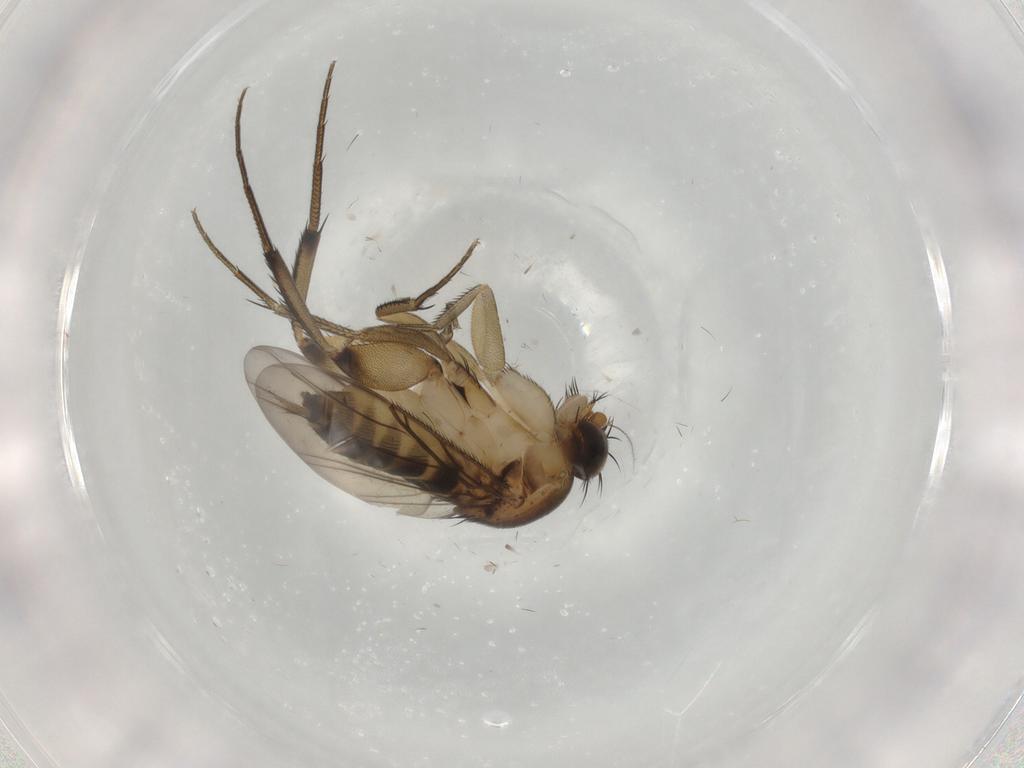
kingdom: Animalia
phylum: Arthropoda
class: Insecta
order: Diptera
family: Phoridae
